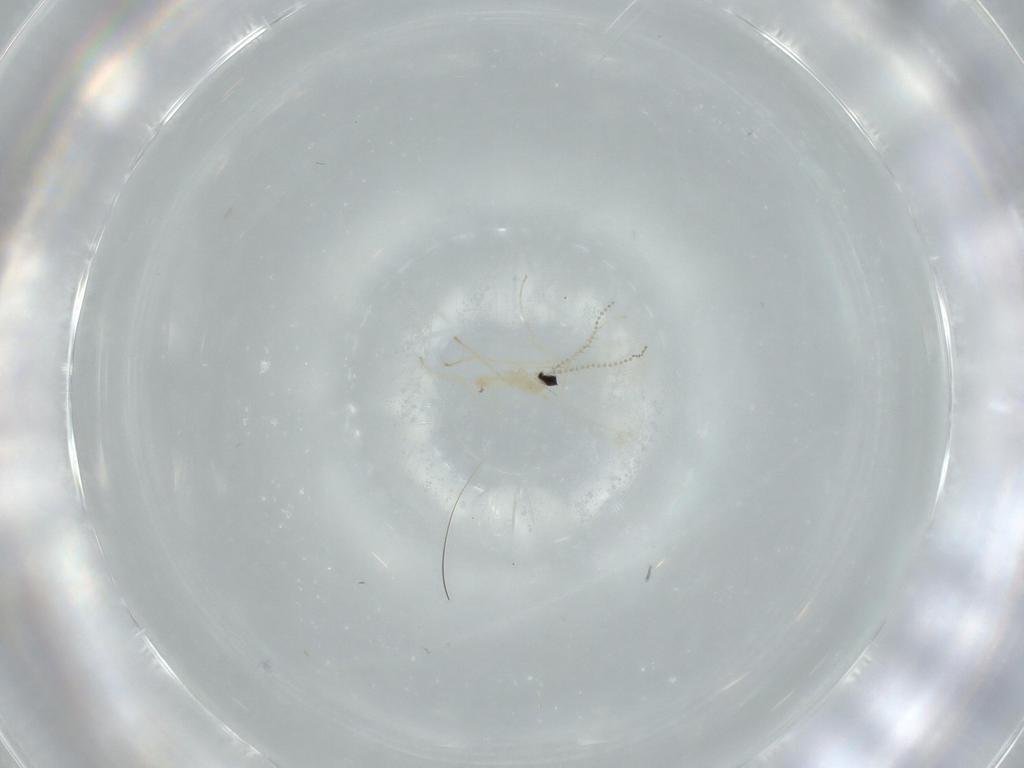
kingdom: Animalia
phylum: Arthropoda
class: Insecta
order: Diptera
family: Cecidomyiidae
